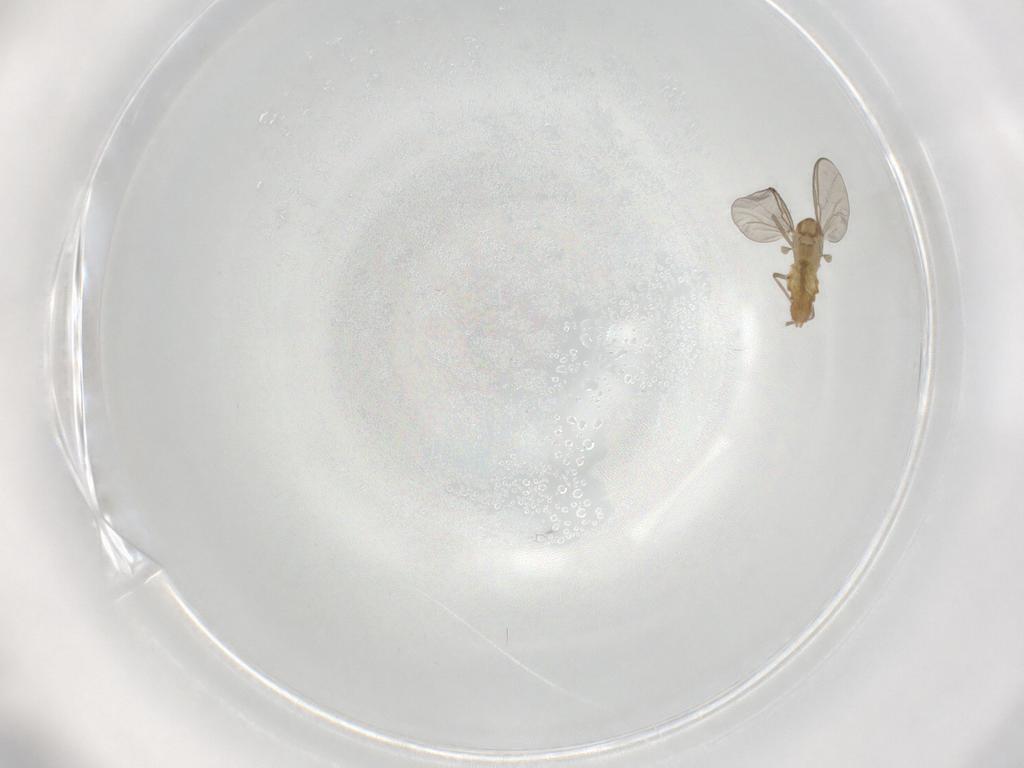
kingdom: Animalia
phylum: Arthropoda
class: Insecta
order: Diptera
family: Chironomidae
